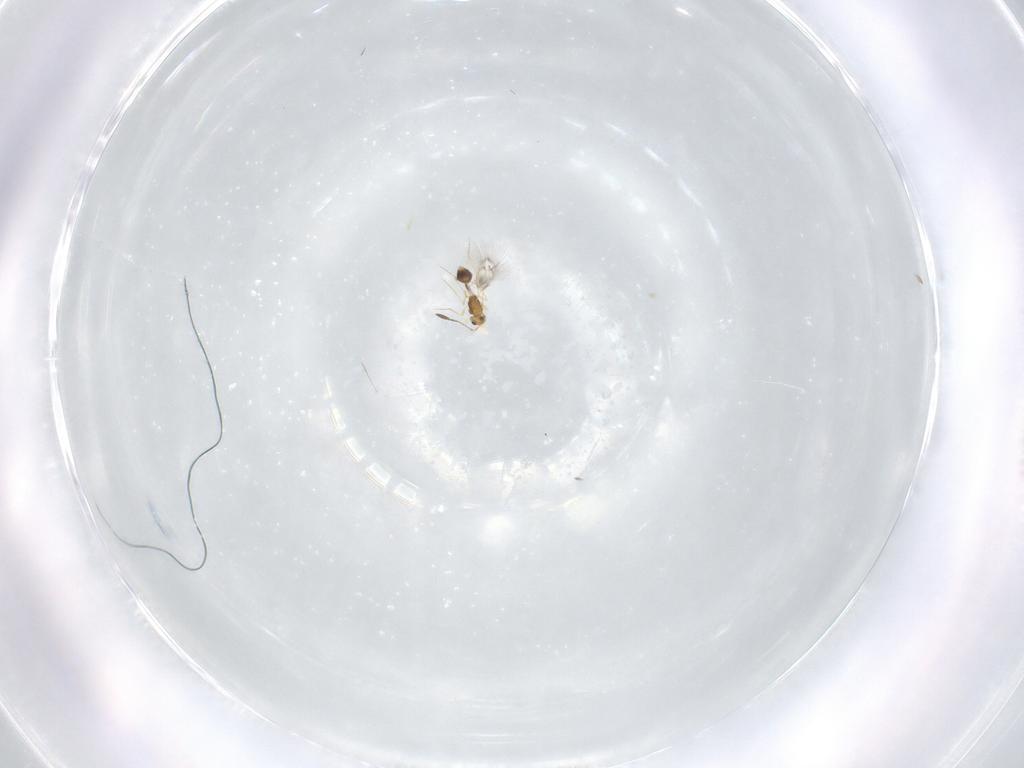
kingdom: Animalia
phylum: Arthropoda
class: Insecta
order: Hymenoptera
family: Mymarommatidae
